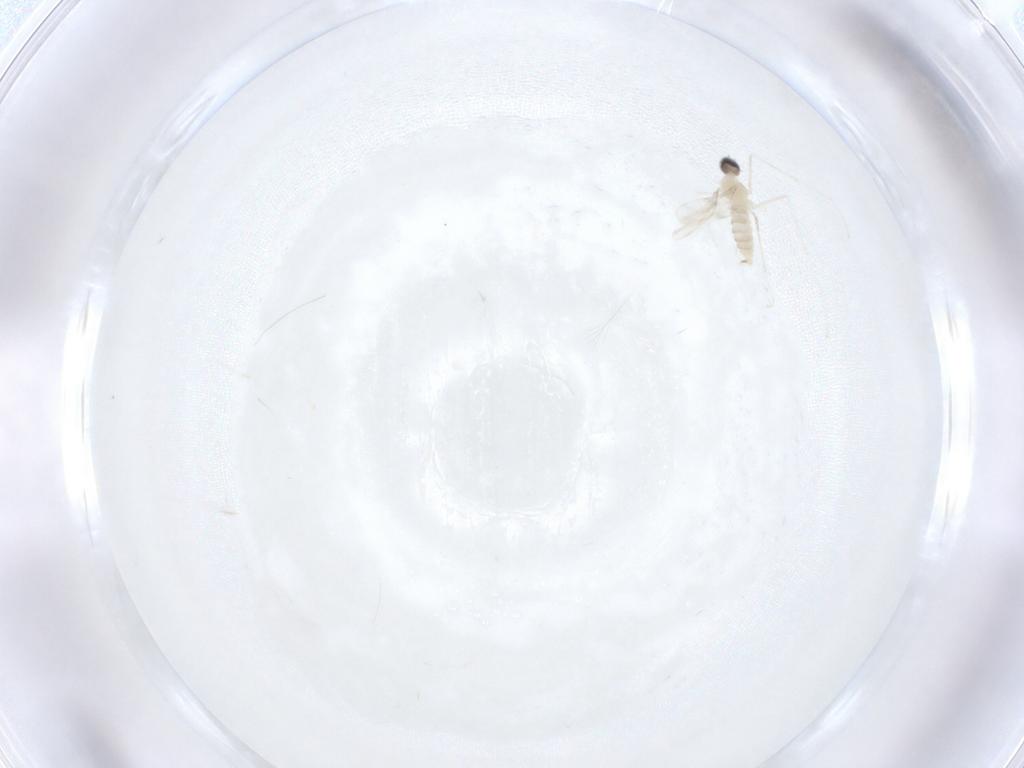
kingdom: Animalia
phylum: Arthropoda
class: Insecta
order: Diptera
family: Cecidomyiidae
